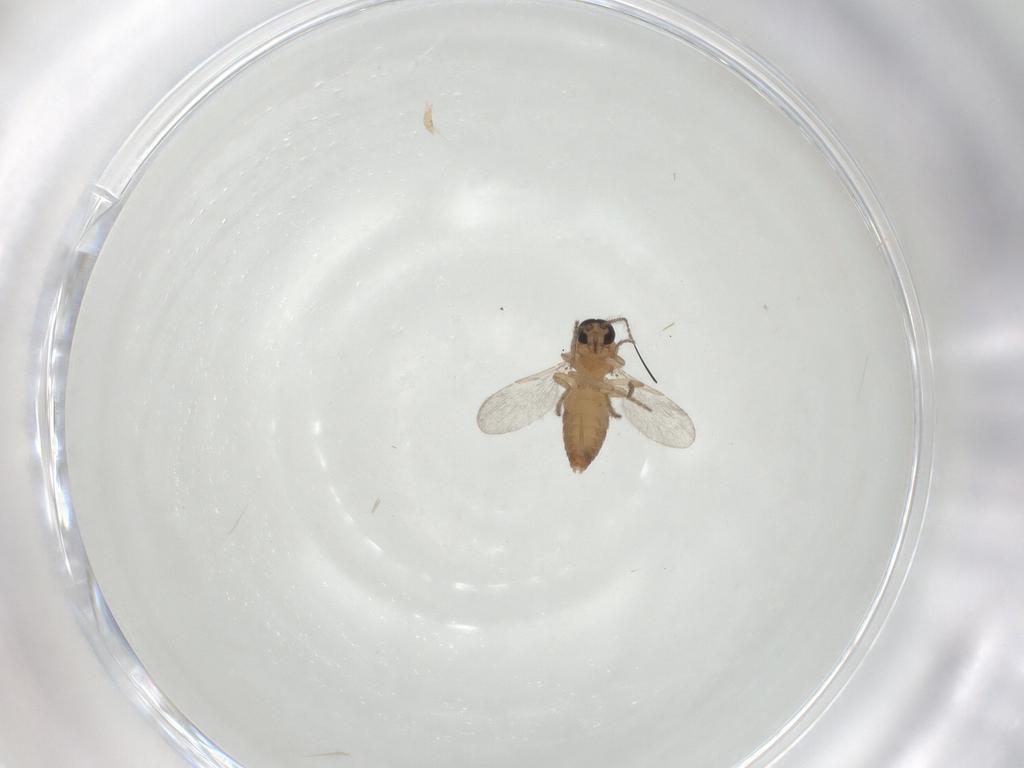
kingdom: Animalia
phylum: Arthropoda
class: Insecta
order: Diptera
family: Ceratopogonidae
